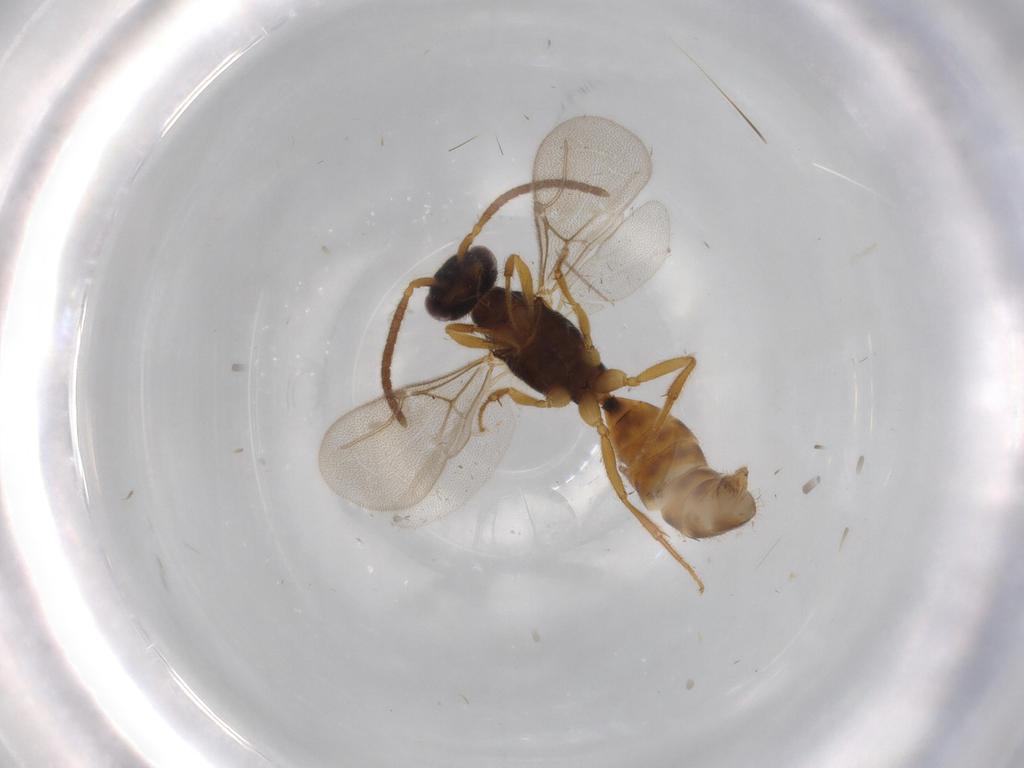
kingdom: Animalia
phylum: Arthropoda
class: Insecta
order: Hymenoptera
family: Bethylidae
